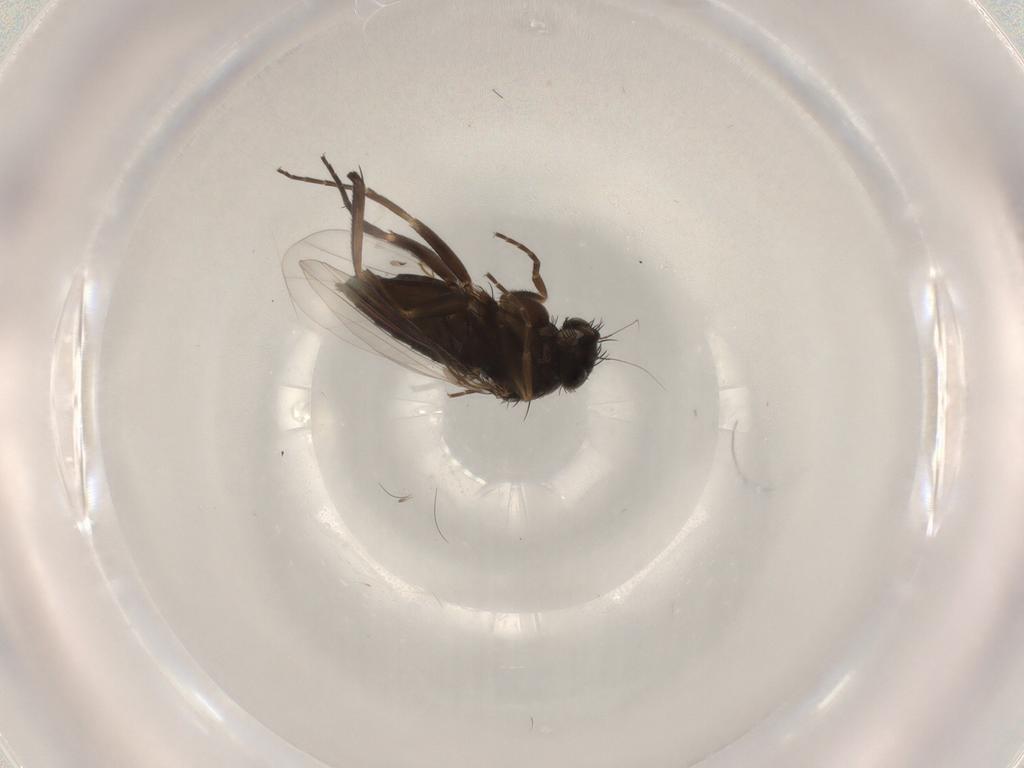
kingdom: Animalia
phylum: Arthropoda
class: Insecta
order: Diptera
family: Phoridae
